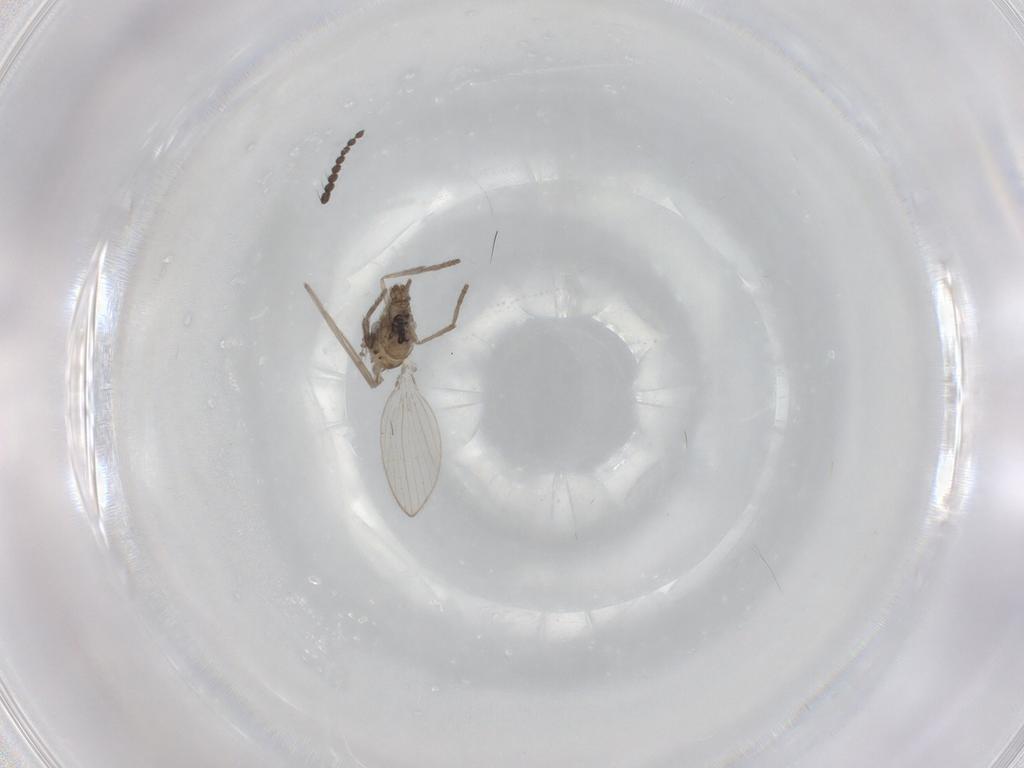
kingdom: Animalia
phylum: Arthropoda
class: Insecta
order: Diptera
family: Psychodidae
